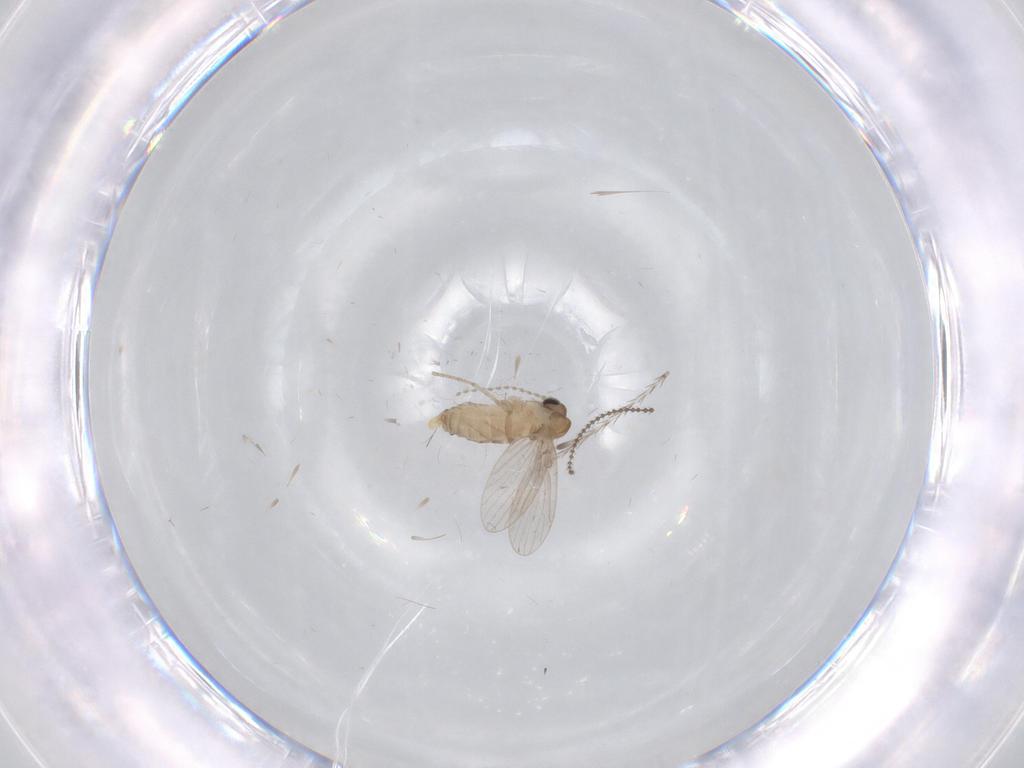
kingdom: Animalia
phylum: Arthropoda
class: Insecta
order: Diptera
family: Psychodidae
